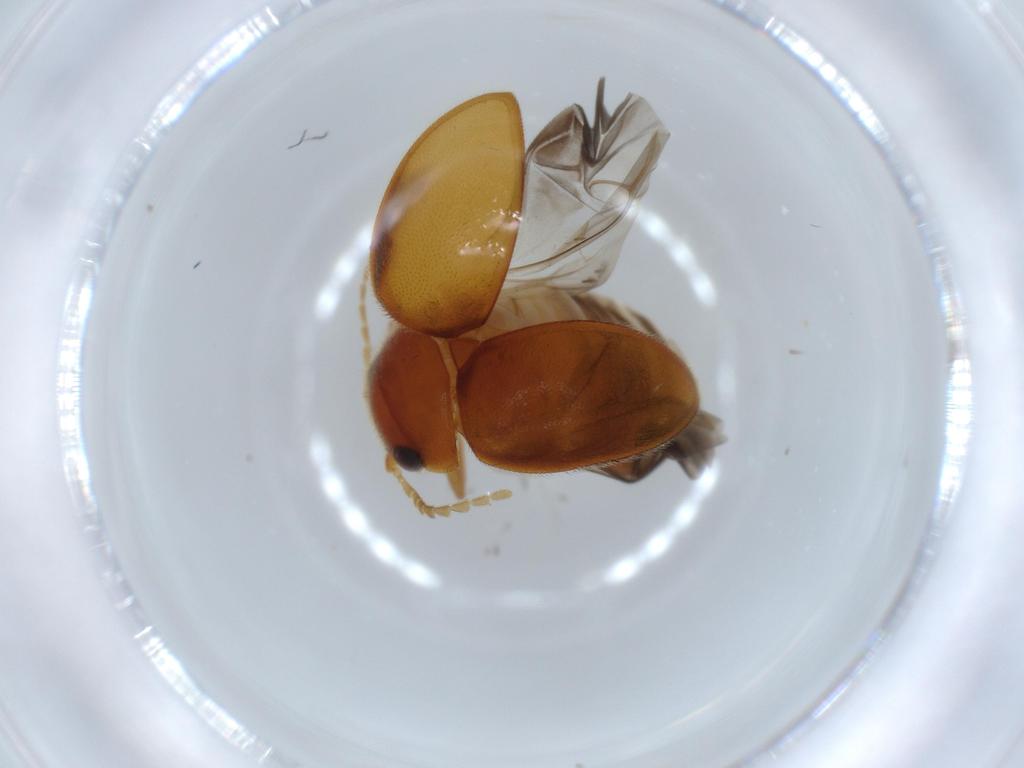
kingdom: Animalia
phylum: Arthropoda
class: Insecta
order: Coleoptera
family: Scirtidae
